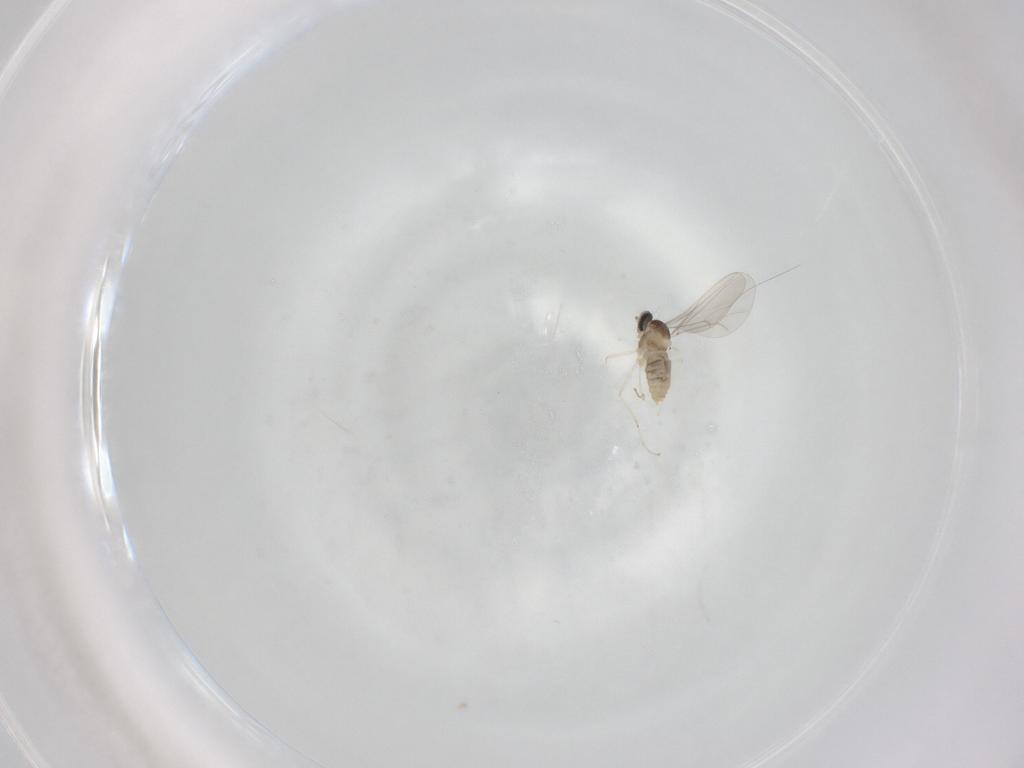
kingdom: Animalia
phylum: Arthropoda
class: Insecta
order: Diptera
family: Cecidomyiidae
